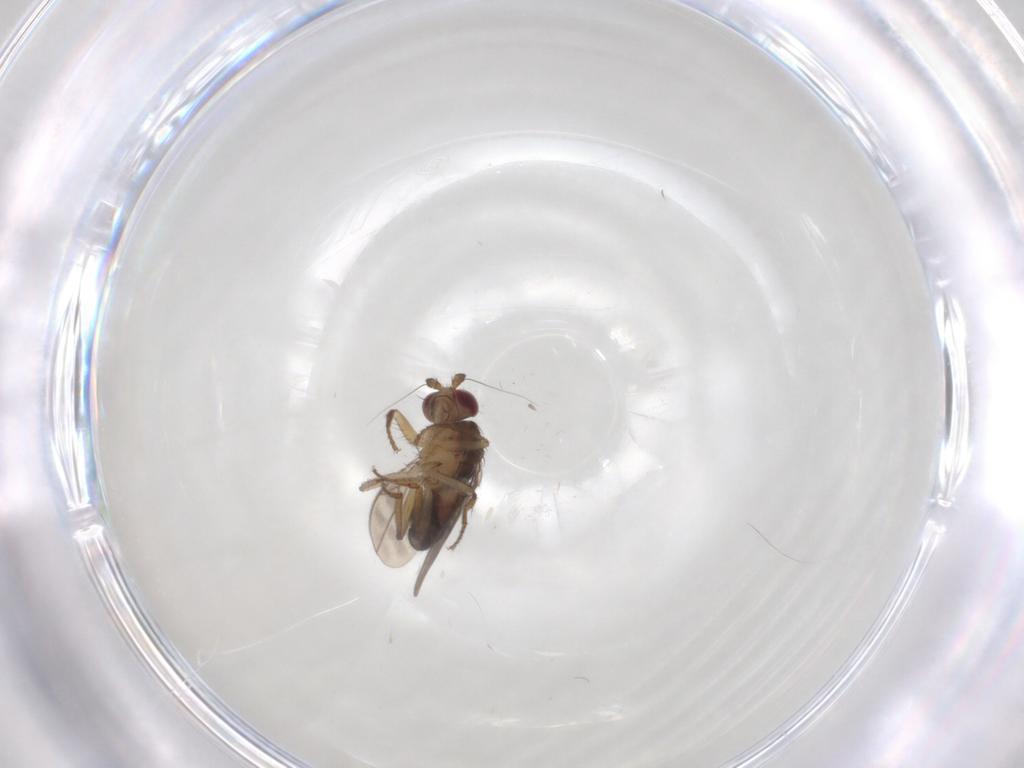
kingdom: Animalia
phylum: Arthropoda
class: Insecta
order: Diptera
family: Sphaeroceridae
